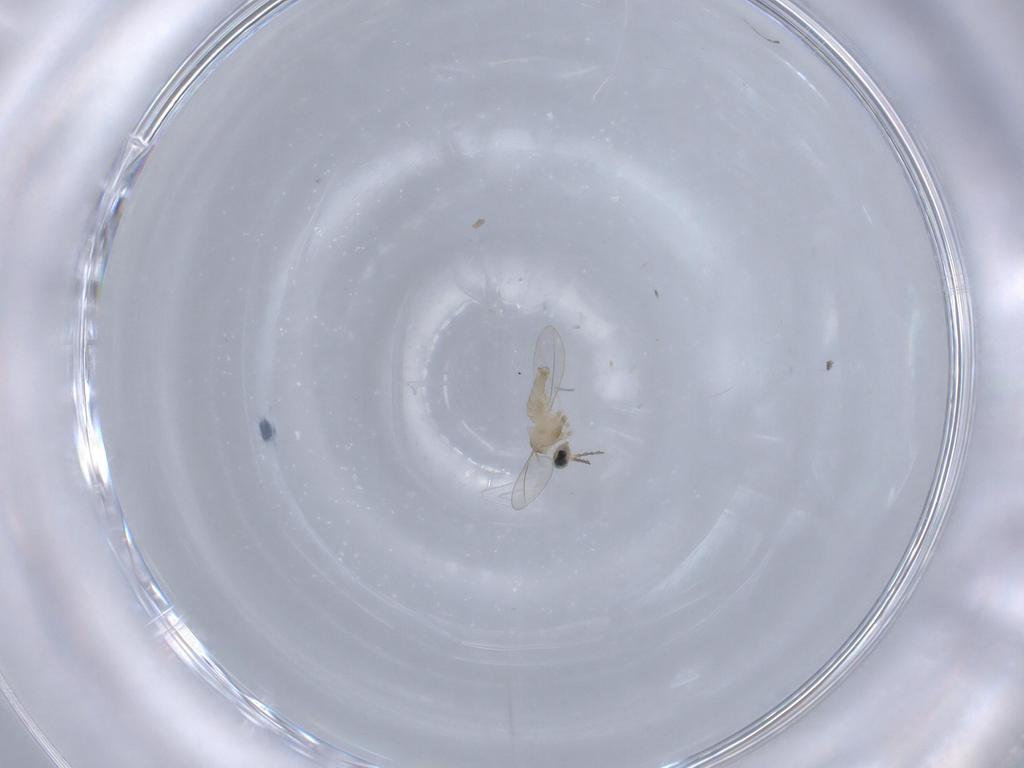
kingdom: Animalia
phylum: Arthropoda
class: Insecta
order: Diptera
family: Cecidomyiidae
